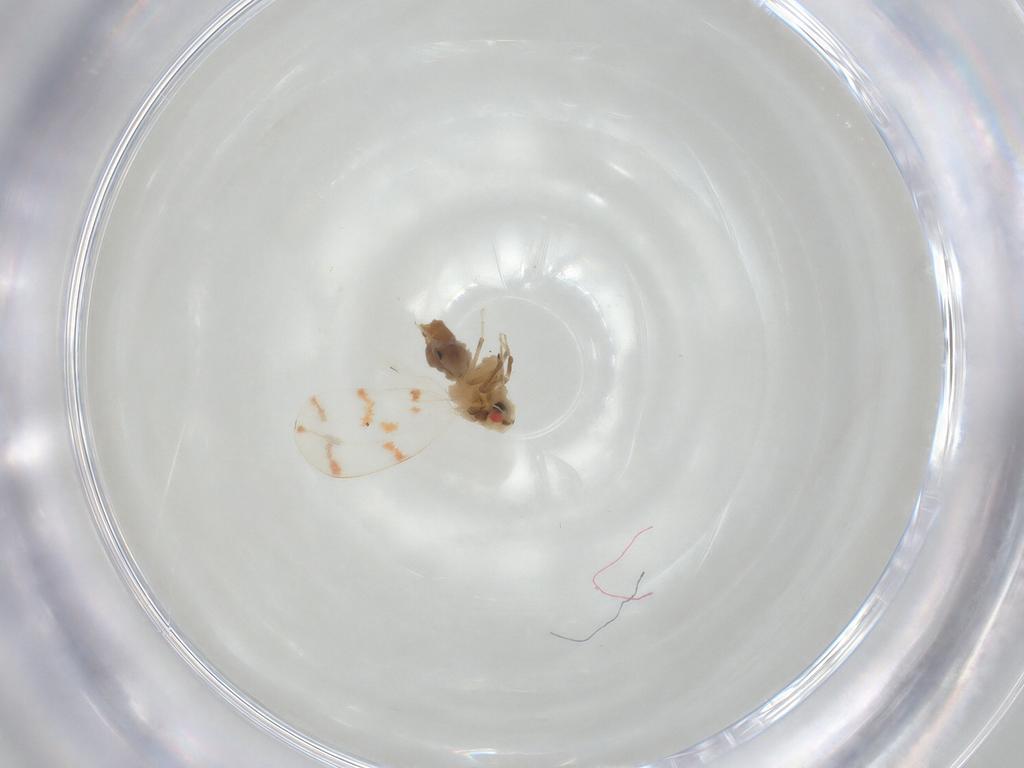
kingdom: Animalia
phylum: Arthropoda
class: Insecta
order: Hemiptera
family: Aleyrodidae
